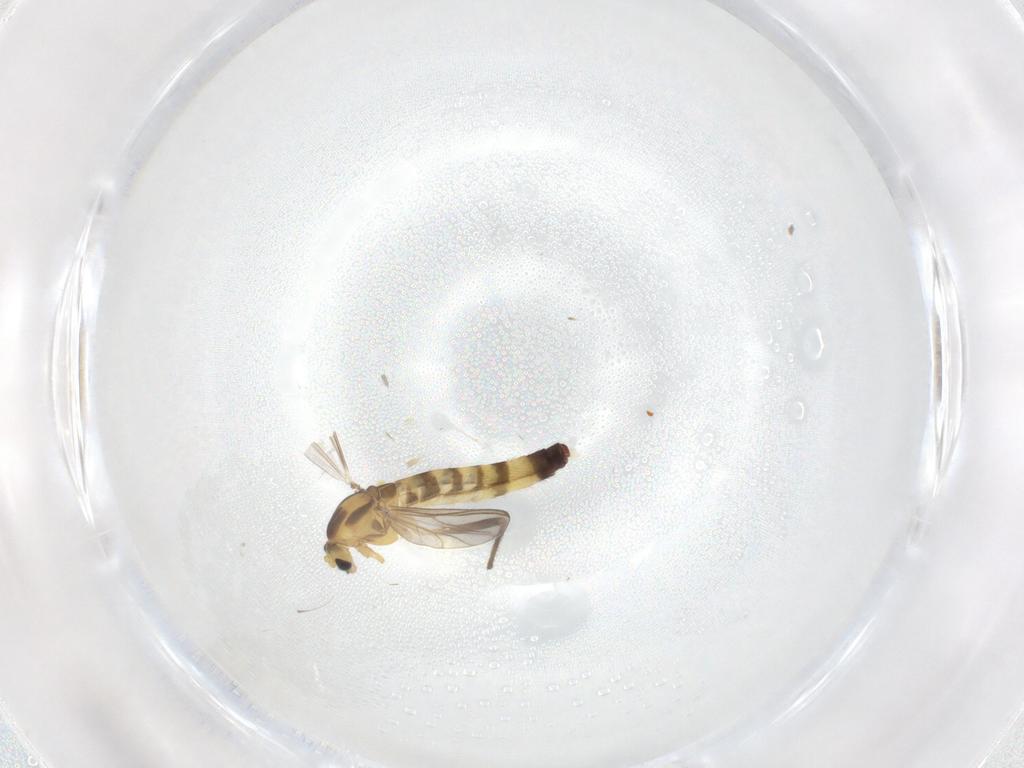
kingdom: Animalia
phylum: Arthropoda
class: Insecta
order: Diptera
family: Chironomidae
